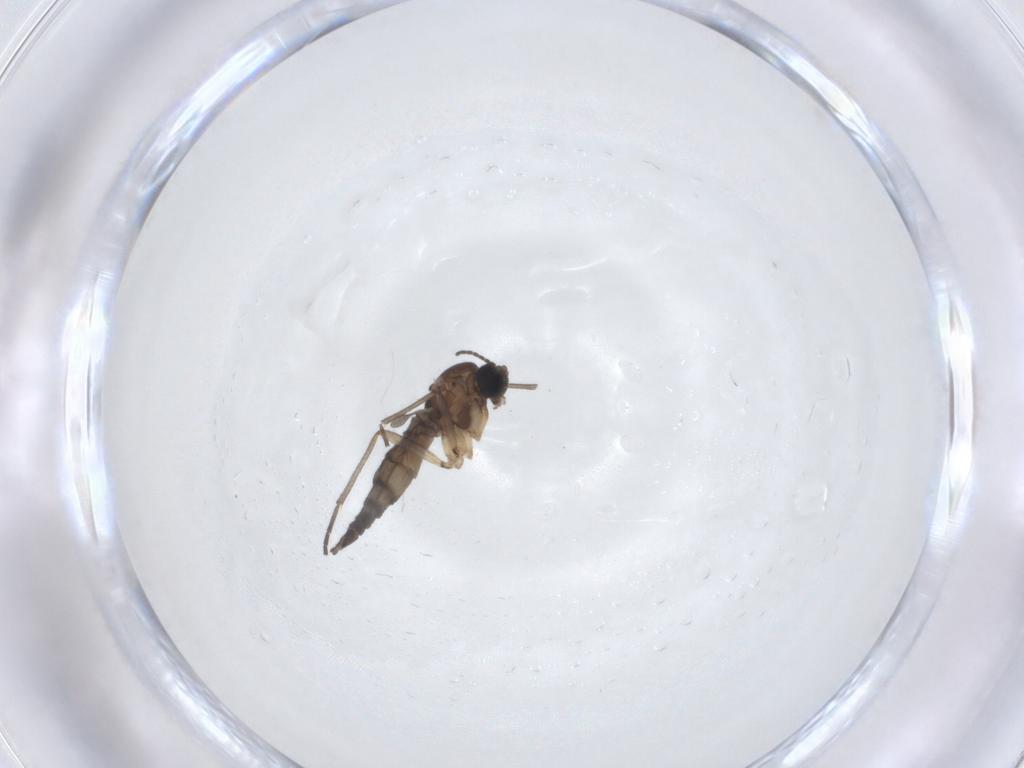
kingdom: Animalia
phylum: Arthropoda
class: Insecta
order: Diptera
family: Sciaridae
